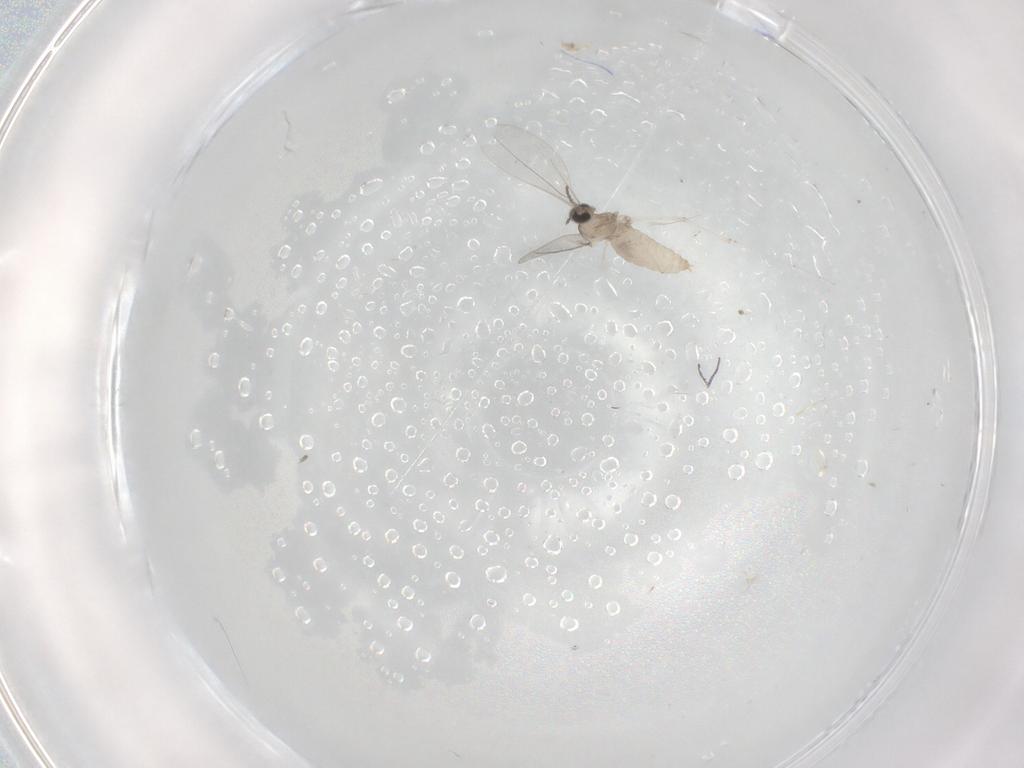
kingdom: Animalia
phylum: Arthropoda
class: Insecta
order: Diptera
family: Cecidomyiidae
